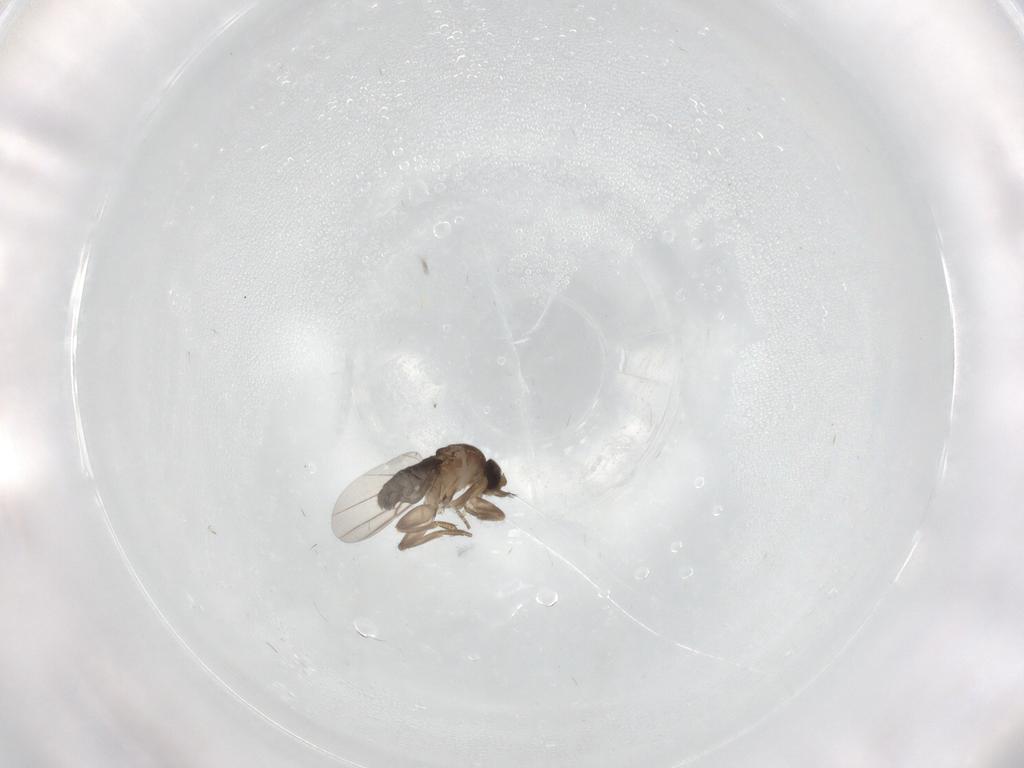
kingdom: Animalia
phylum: Arthropoda
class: Insecta
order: Diptera
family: Phoridae
